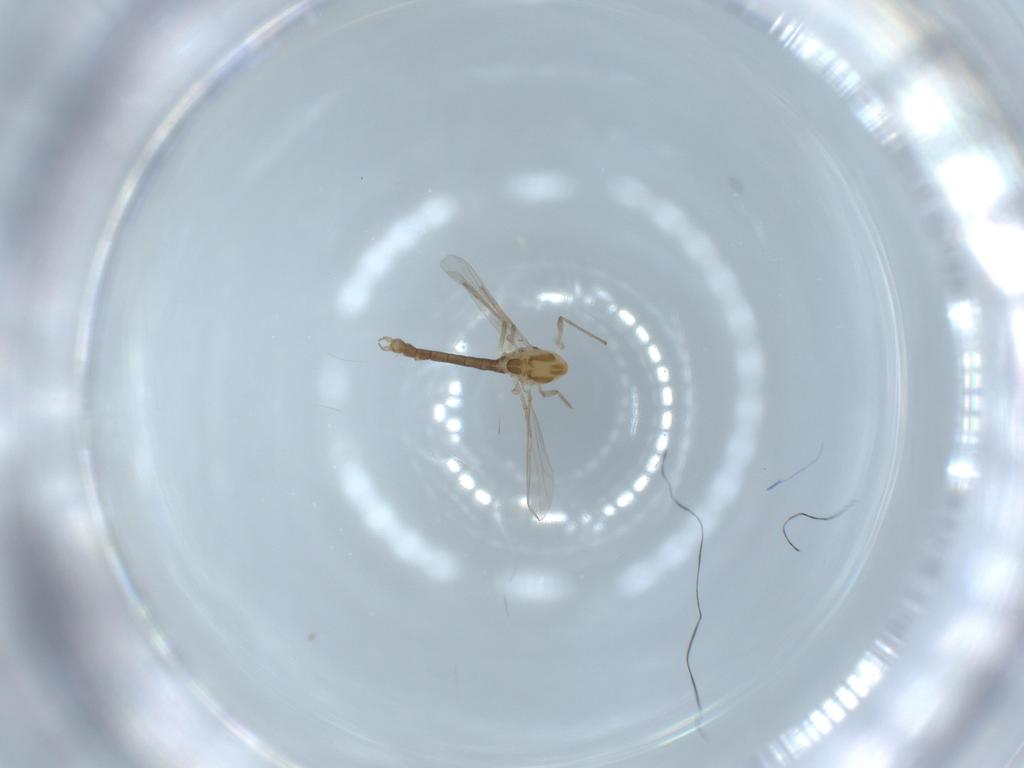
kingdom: Animalia
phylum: Arthropoda
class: Insecta
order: Diptera
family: Chironomidae
